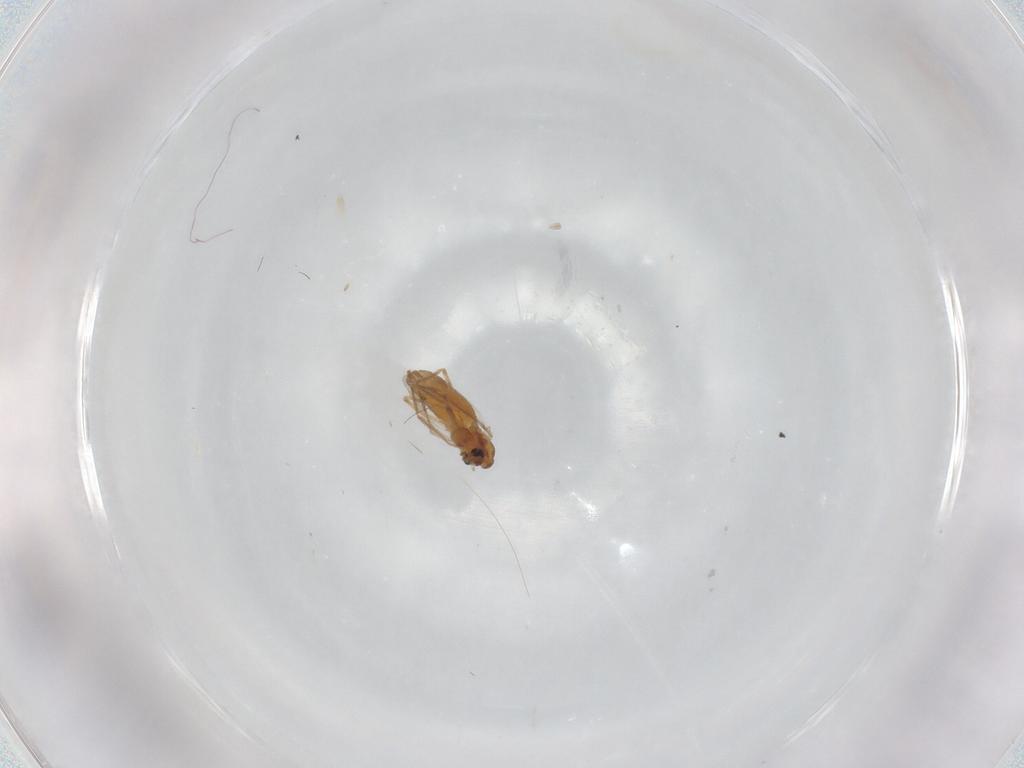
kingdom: Animalia
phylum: Arthropoda
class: Insecta
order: Diptera
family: Chironomidae
